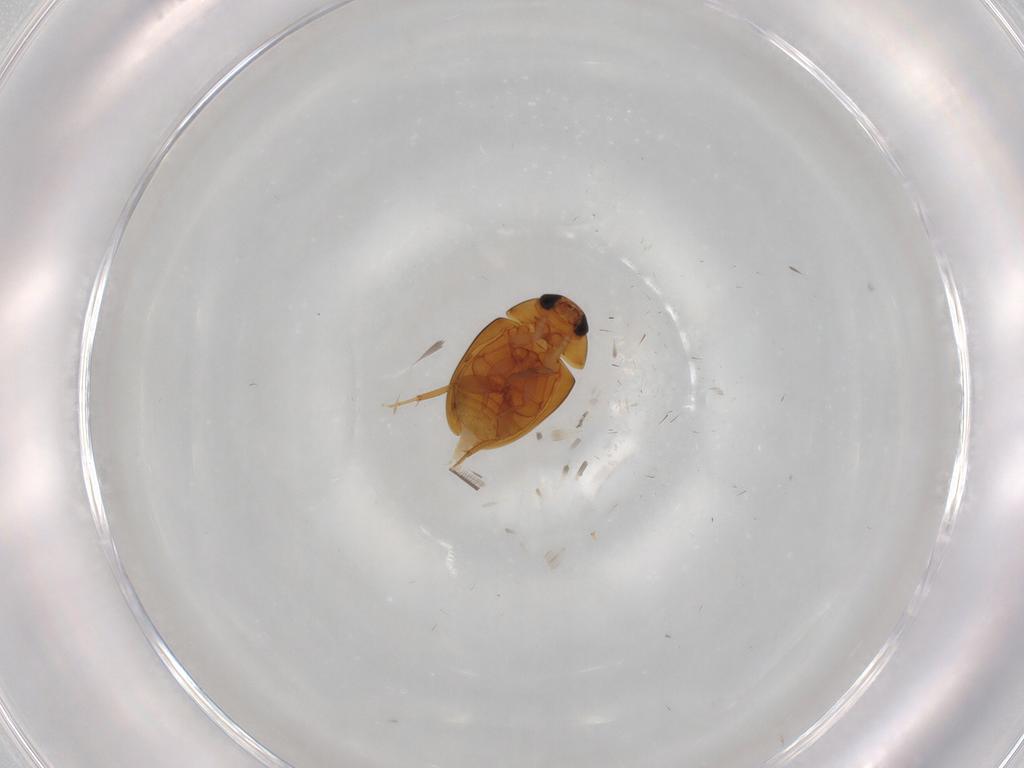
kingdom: Animalia
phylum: Arthropoda
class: Insecta
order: Coleoptera
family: Phalacridae
